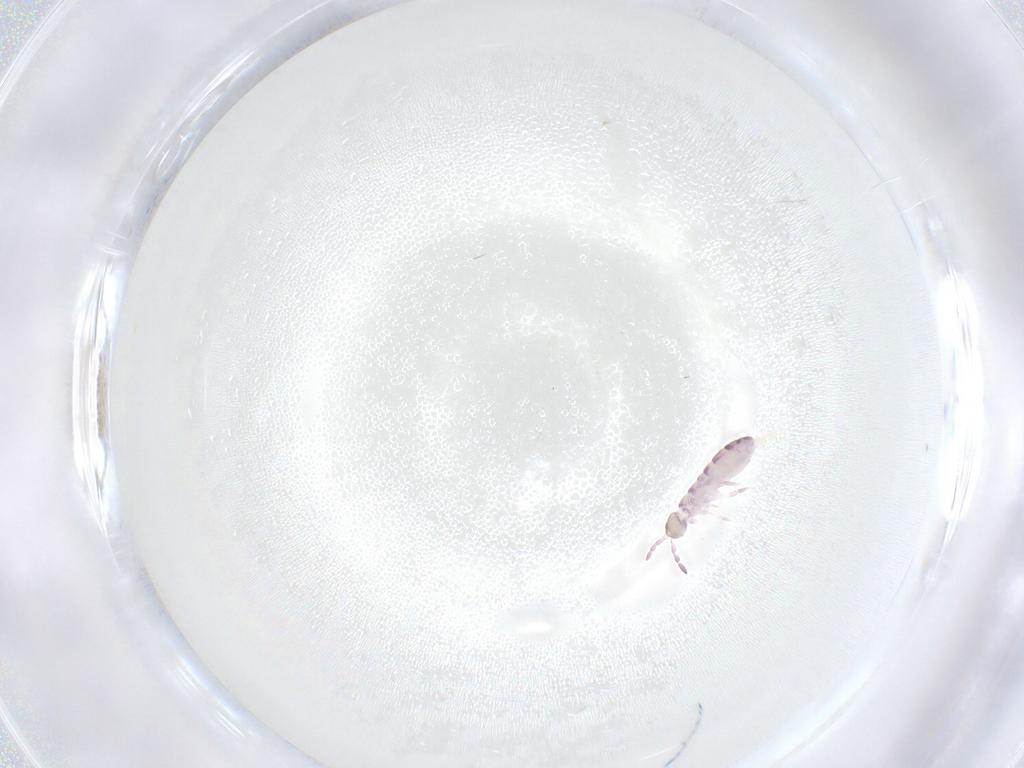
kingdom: Animalia
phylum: Arthropoda
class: Collembola
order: Entomobryomorpha
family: Isotomidae
